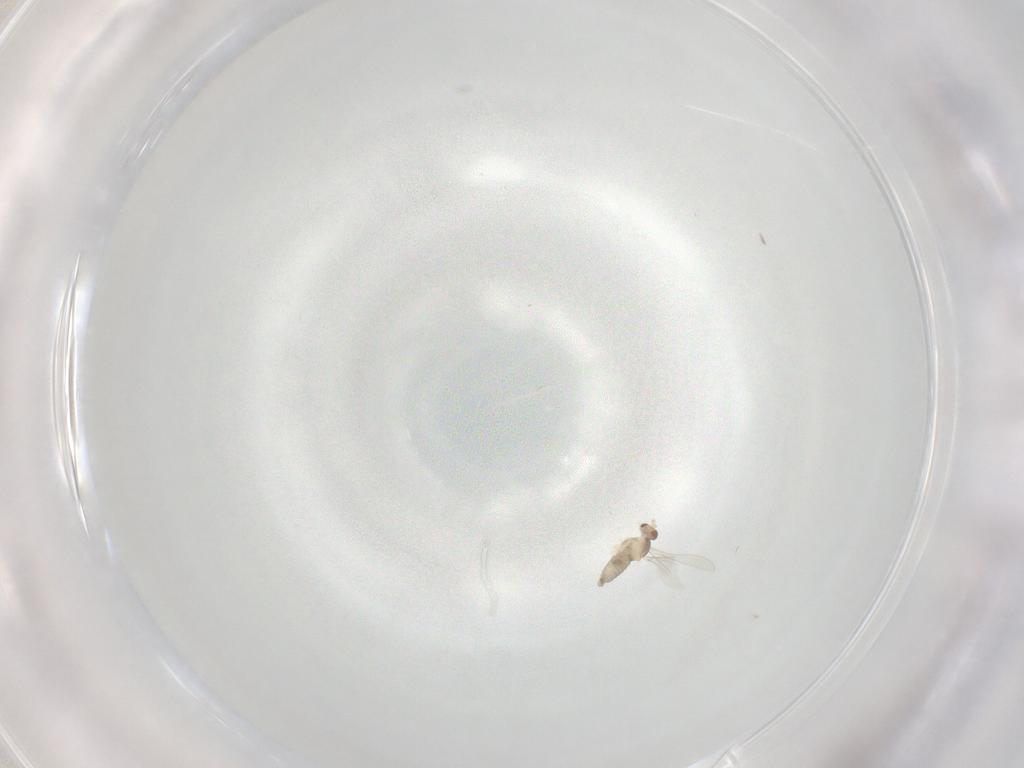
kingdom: Animalia
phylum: Arthropoda
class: Insecta
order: Diptera
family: Cecidomyiidae
